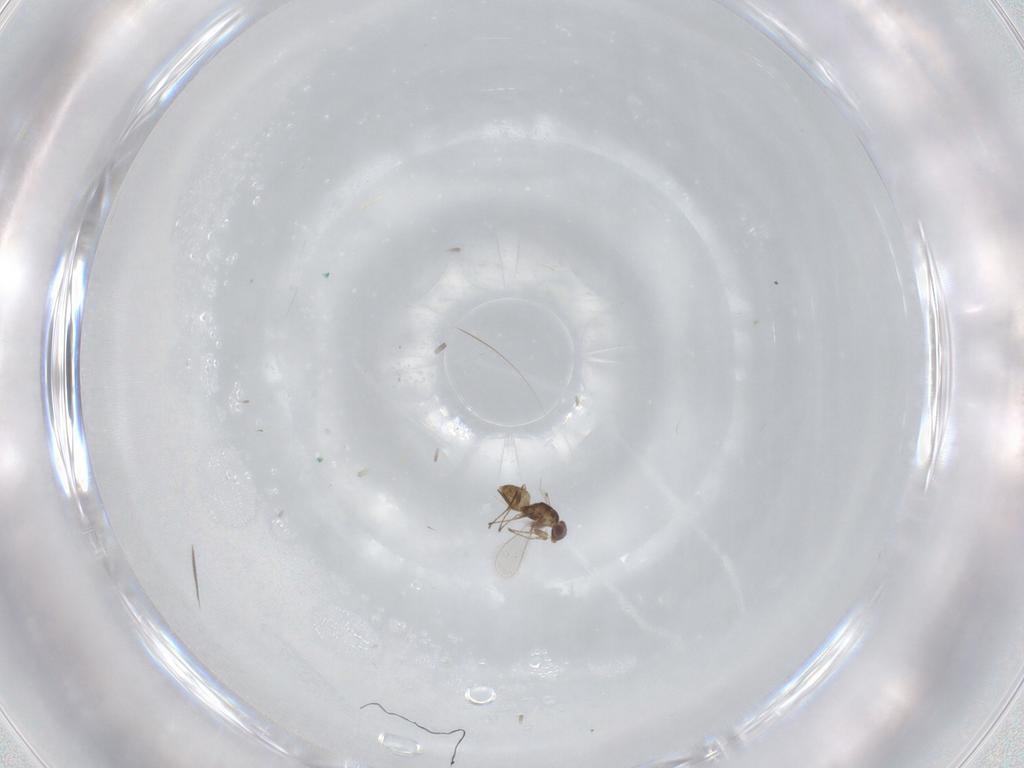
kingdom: Animalia
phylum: Arthropoda
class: Insecta
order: Hymenoptera
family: Mymaridae
